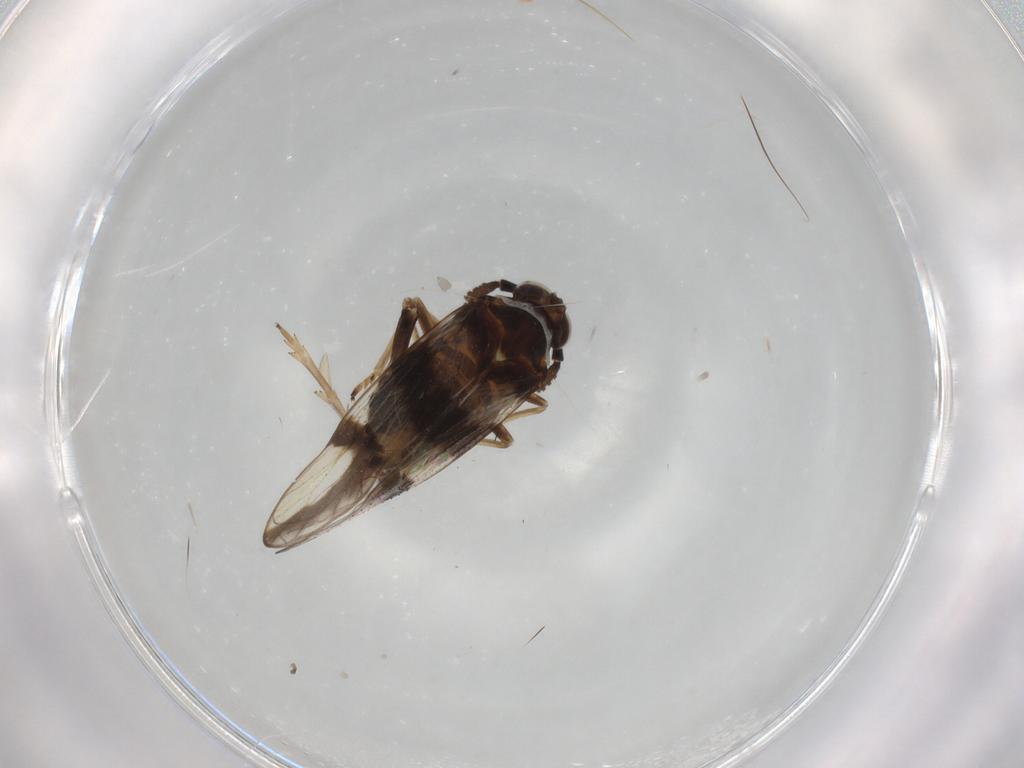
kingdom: Animalia
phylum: Arthropoda
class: Insecta
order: Hemiptera
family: Delphacidae
